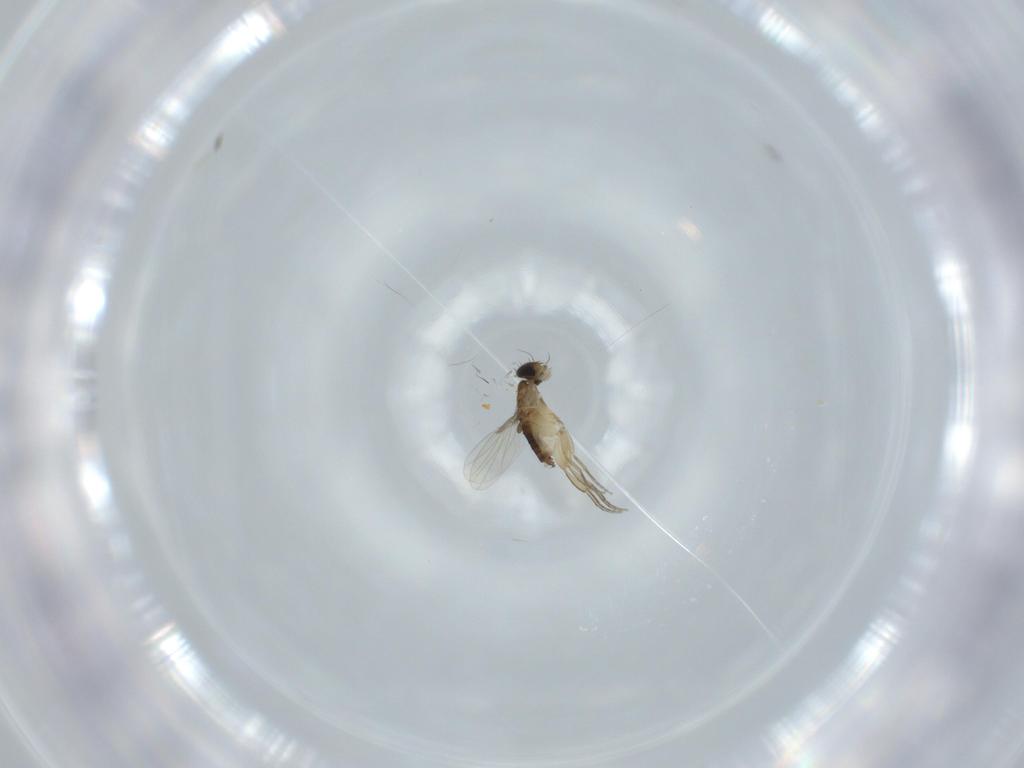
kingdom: Animalia
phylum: Arthropoda
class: Insecta
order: Diptera
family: Phoridae
